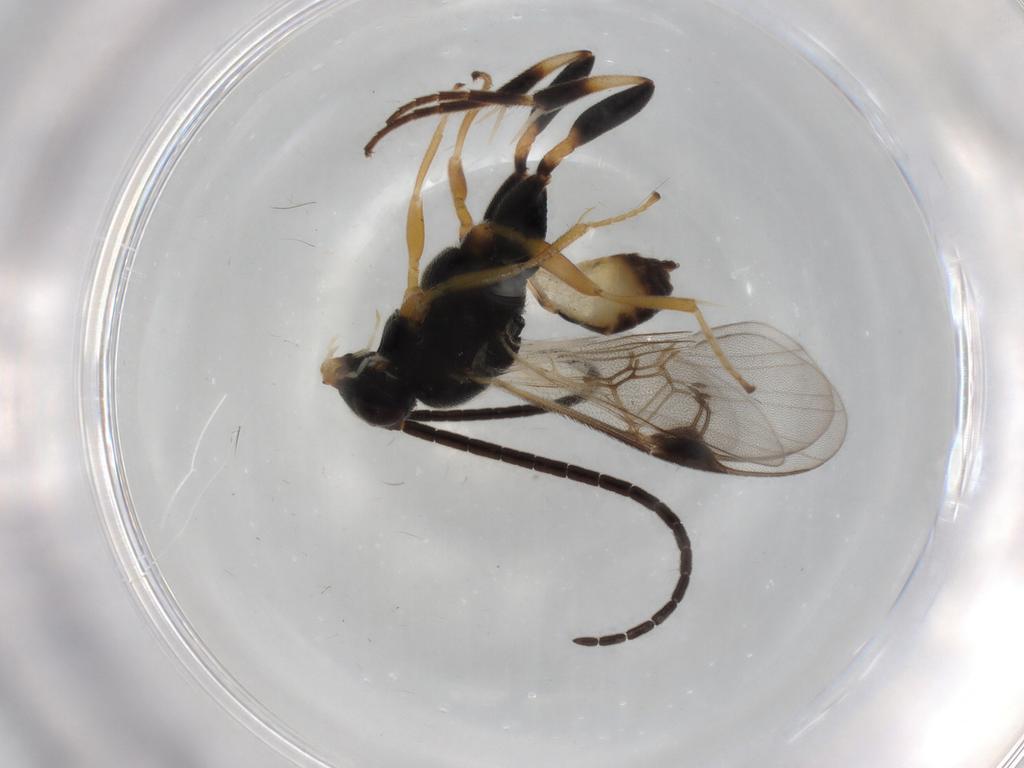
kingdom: Animalia
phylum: Arthropoda
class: Insecta
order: Hymenoptera
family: Braconidae
